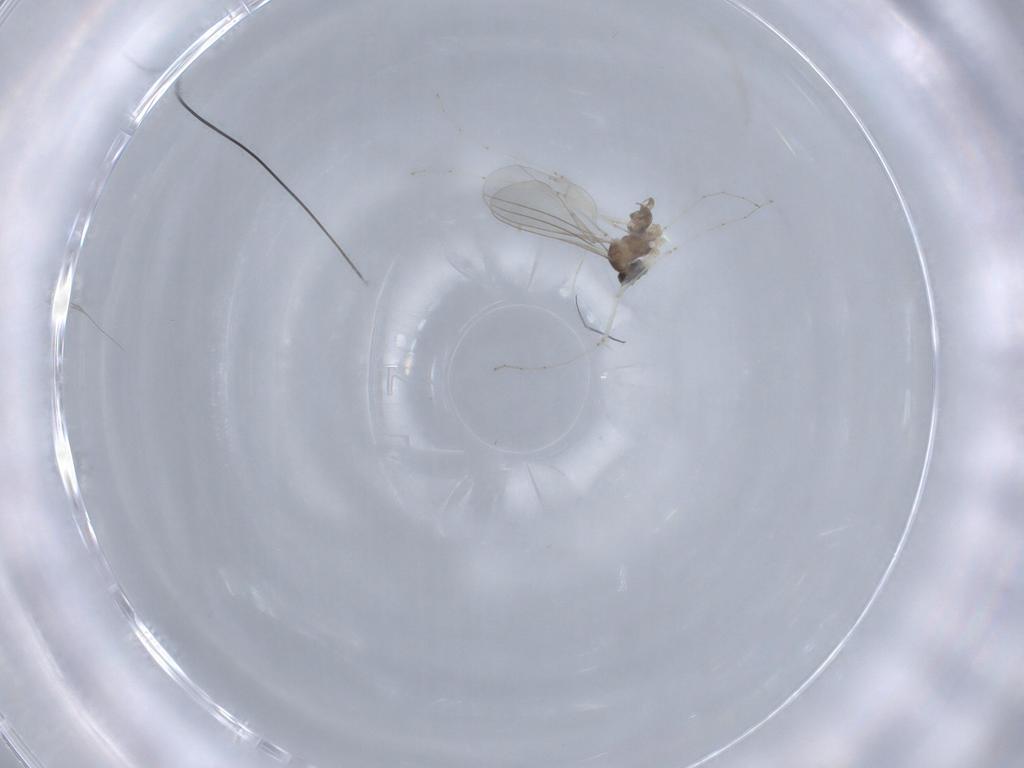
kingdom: Animalia
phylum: Arthropoda
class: Insecta
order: Diptera
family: Cecidomyiidae
